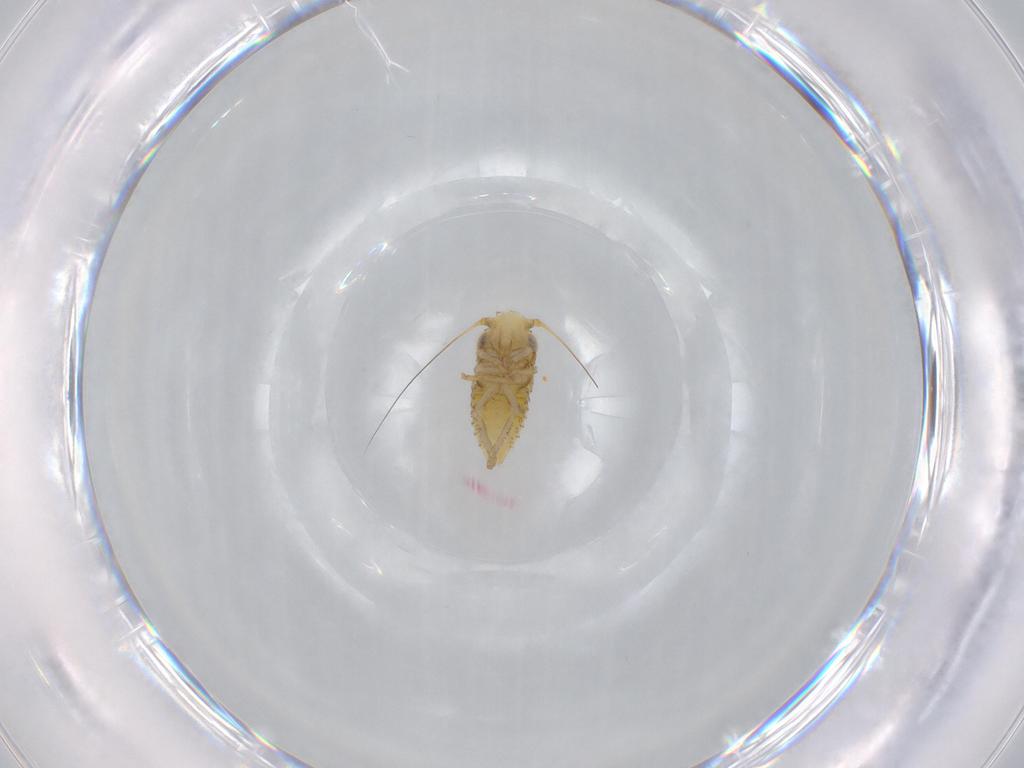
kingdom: Animalia
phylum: Arthropoda
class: Insecta
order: Hemiptera
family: Cicadellidae
